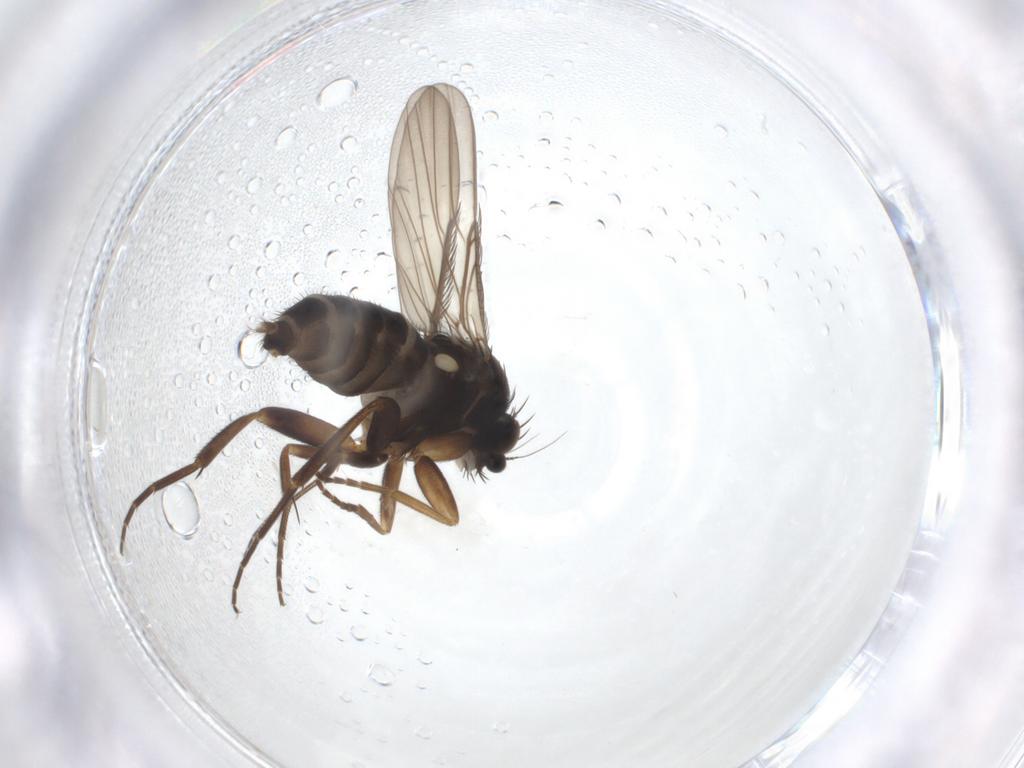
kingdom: Animalia
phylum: Arthropoda
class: Insecta
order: Diptera
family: Phoridae
